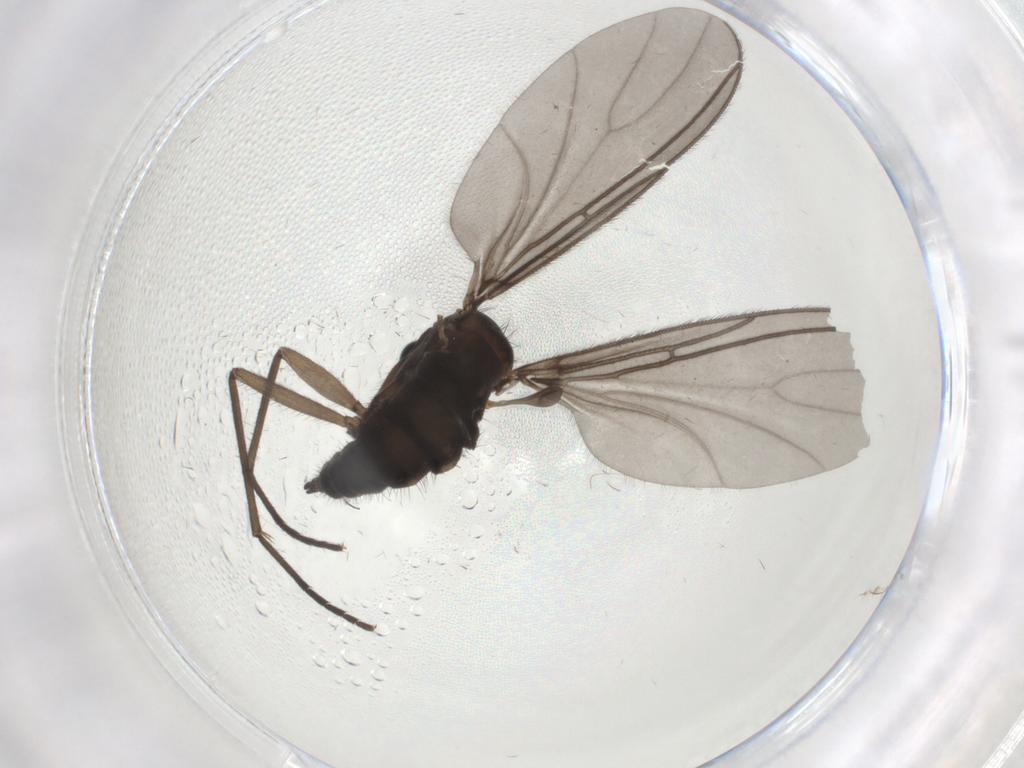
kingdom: Animalia
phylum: Arthropoda
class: Insecta
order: Diptera
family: Sciaridae
